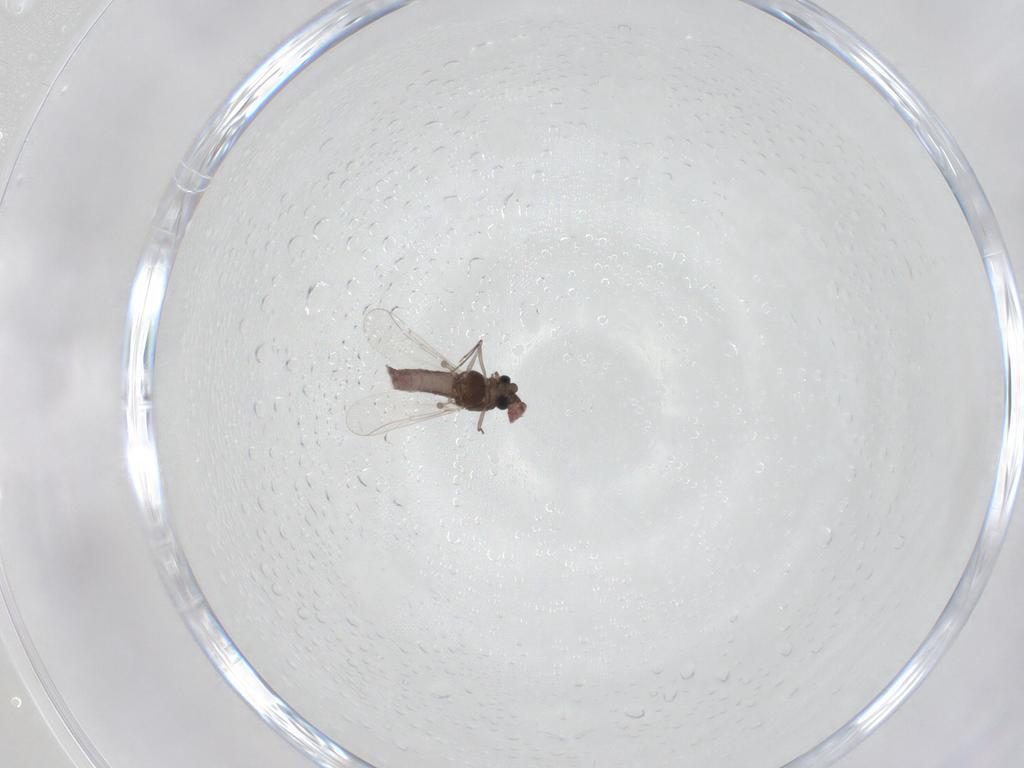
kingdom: Animalia
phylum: Arthropoda
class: Insecta
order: Diptera
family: Chironomidae
